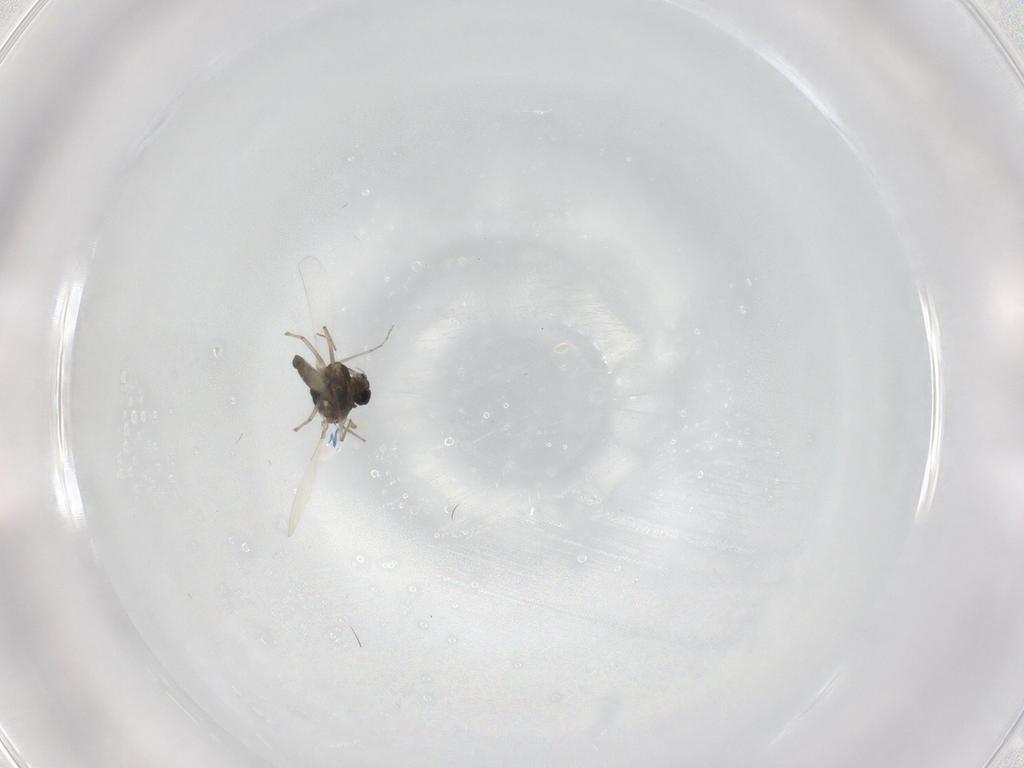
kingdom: Animalia
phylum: Arthropoda
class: Insecta
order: Diptera
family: Chironomidae
